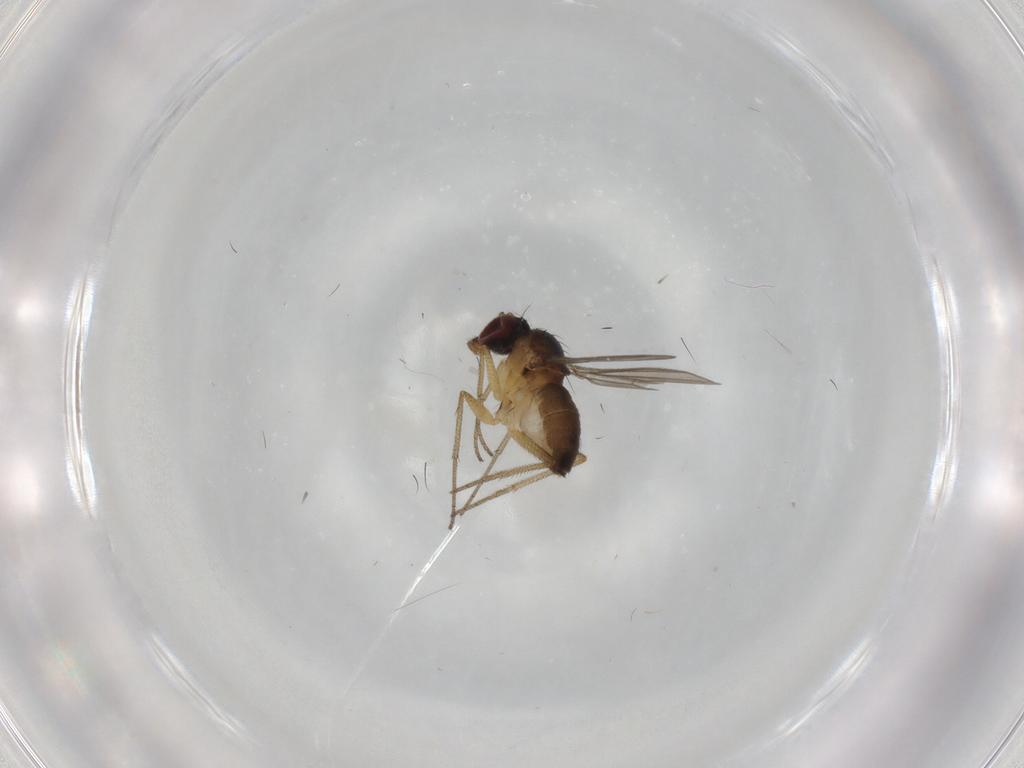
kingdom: Animalia
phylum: Arthropoda
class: Insecta
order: Diptera
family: Dolichopodidae
